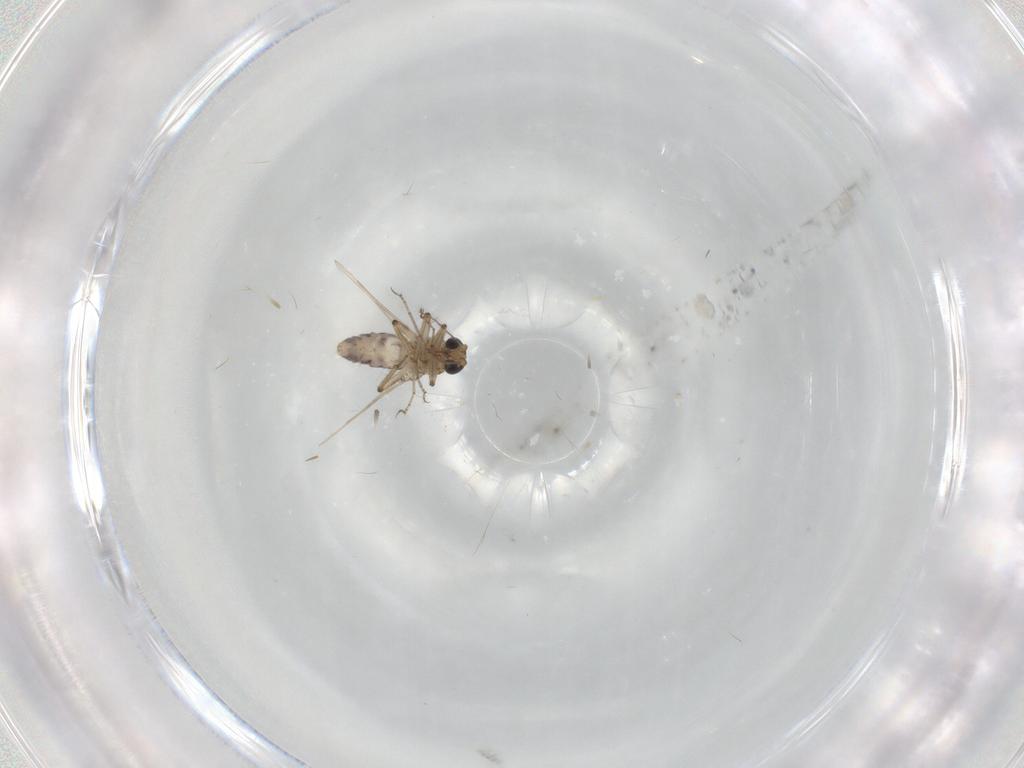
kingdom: Animalia
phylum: Arthropoda
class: Insecta
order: Diptera
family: Ceratopogonidae
